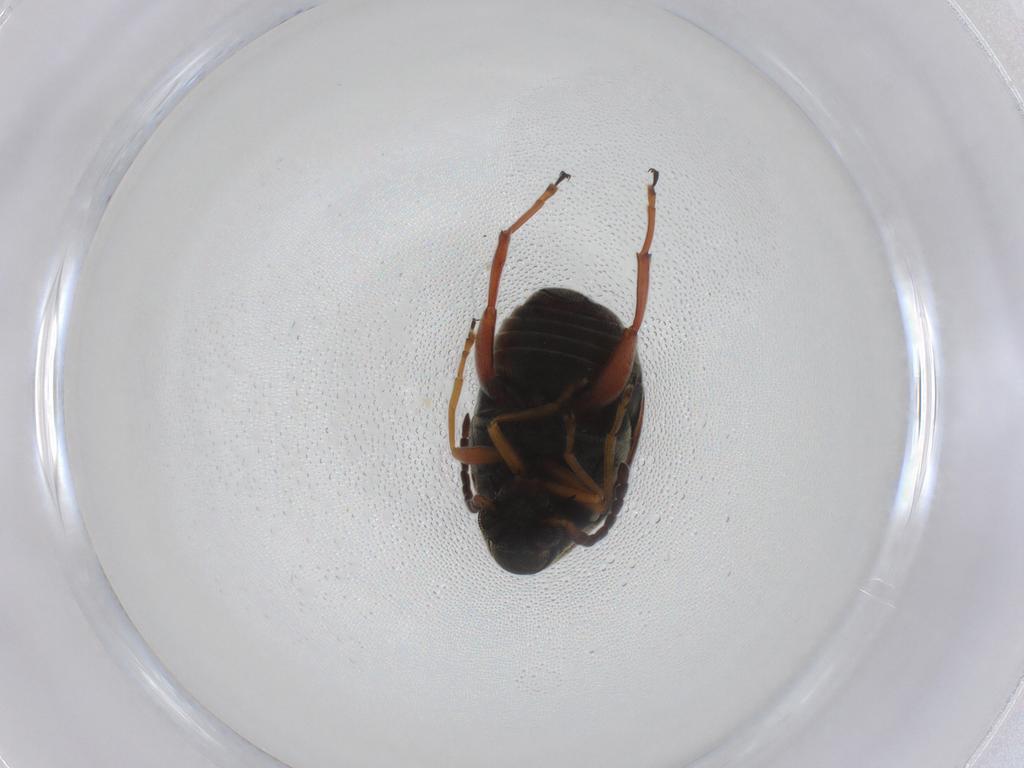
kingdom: Animalia
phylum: Arthropoda
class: Insecta
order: Coleoptera
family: Chrysomelidae
